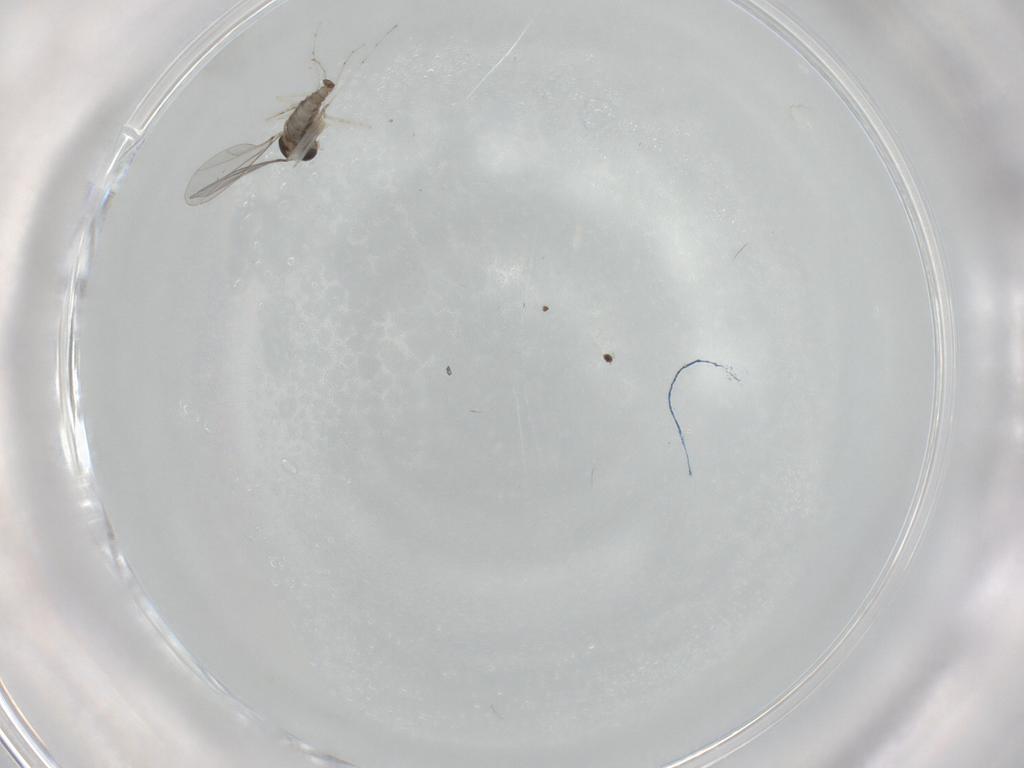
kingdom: Animalia
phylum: Arthropoda
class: Insecta
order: Diptera
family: Cecidomyiidae
